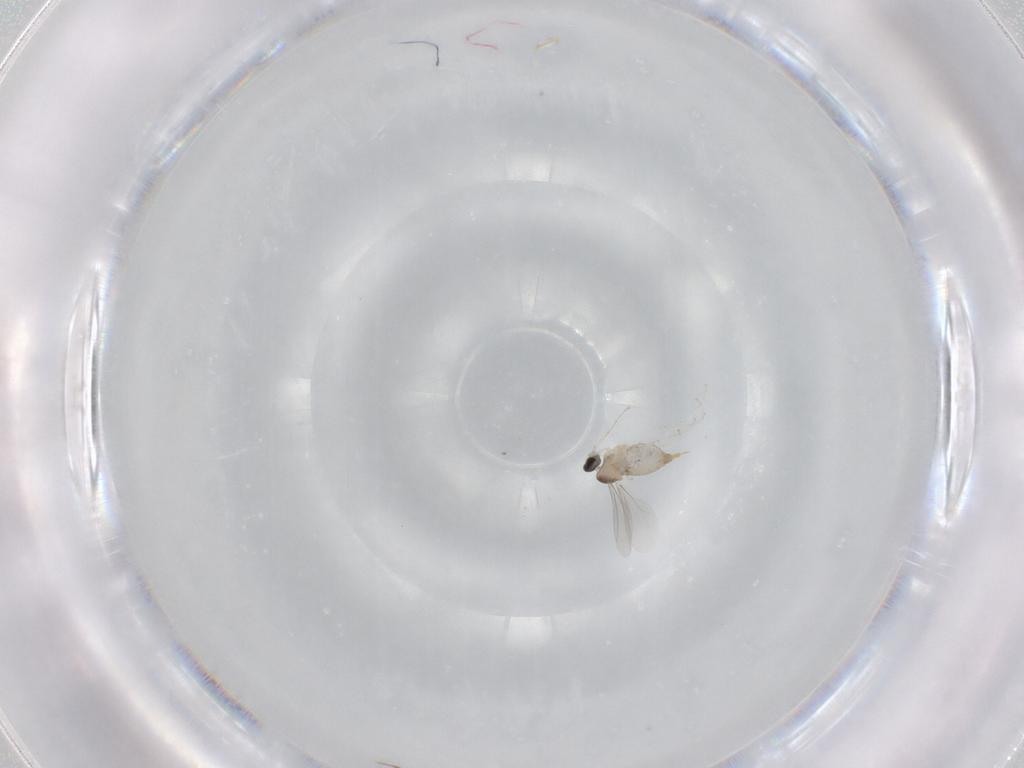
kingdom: Animalia
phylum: Arthropoda
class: Insecta
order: Diptera
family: Cecidomyiidae
